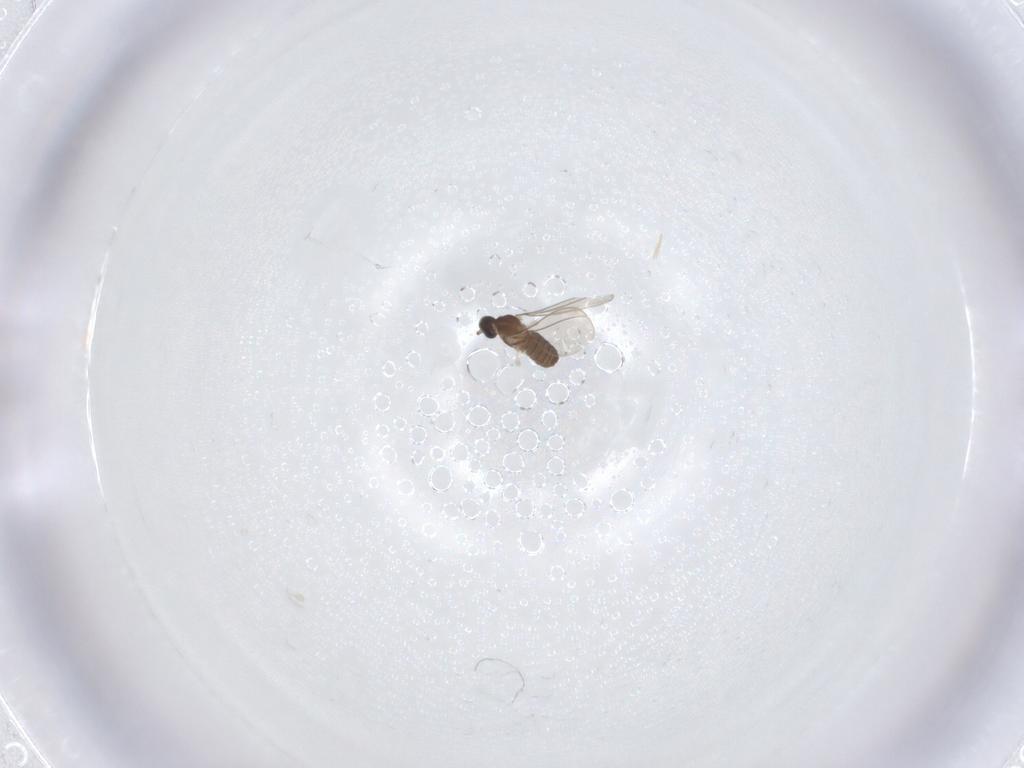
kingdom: Animalia
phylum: Arthropoda
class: Insecta
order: Diptera
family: Cecidomyiidae
